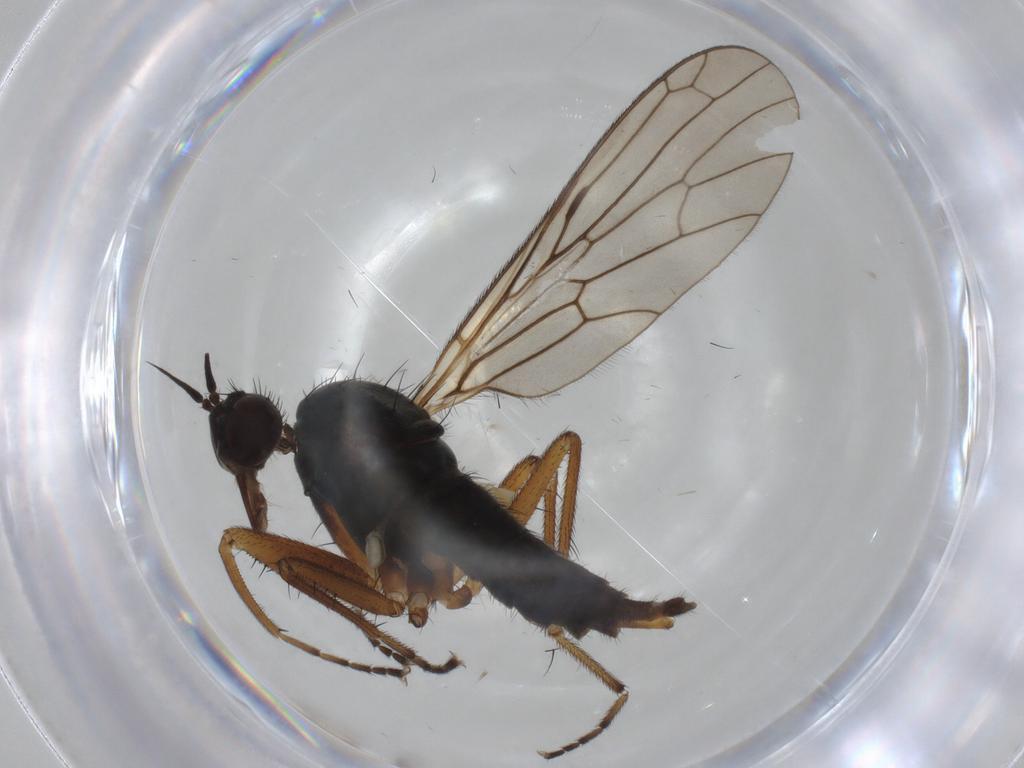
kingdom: Animalia
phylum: Arthropoda
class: Insecta
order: Diptera
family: Anthomyiidae
